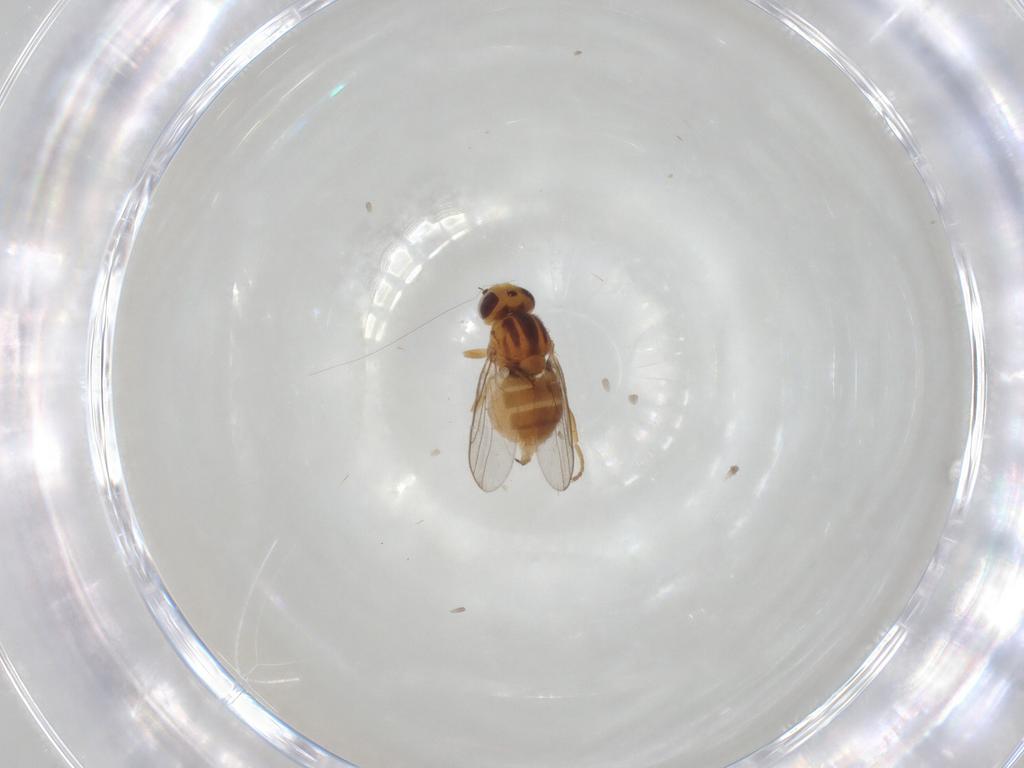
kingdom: Animalia
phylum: Arthropoda
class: Insecta
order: Diptera
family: Chloropidae
